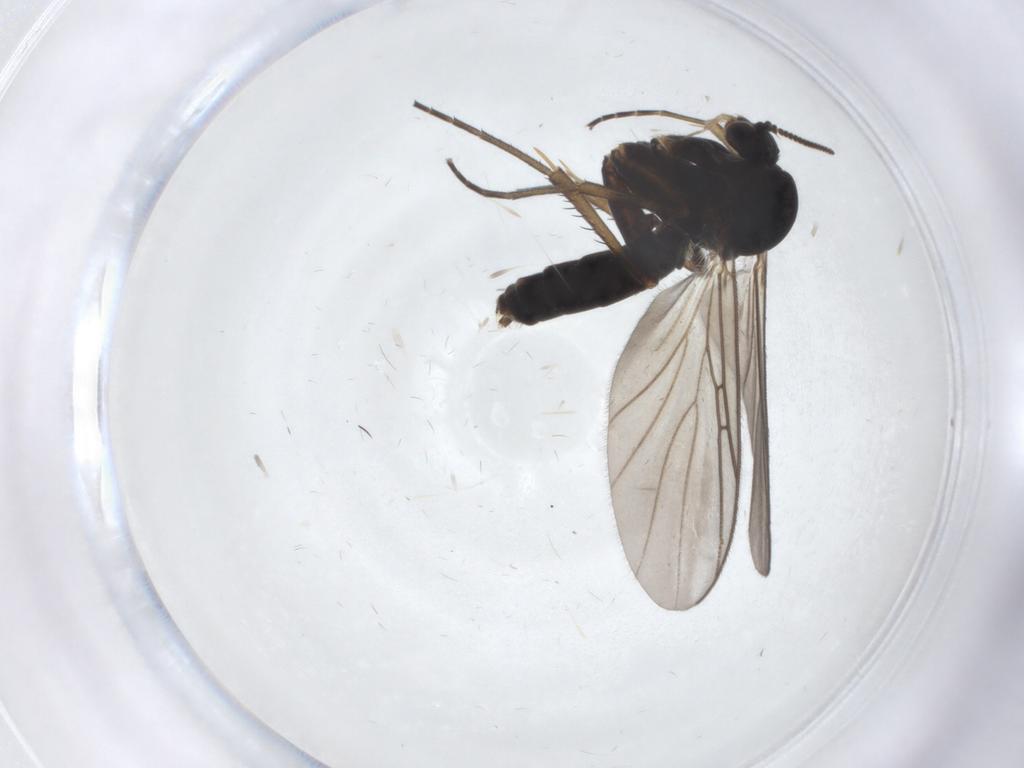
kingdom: Animalia
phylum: Arthropoda
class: Insecta
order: Diptera
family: Mycetophilidae
